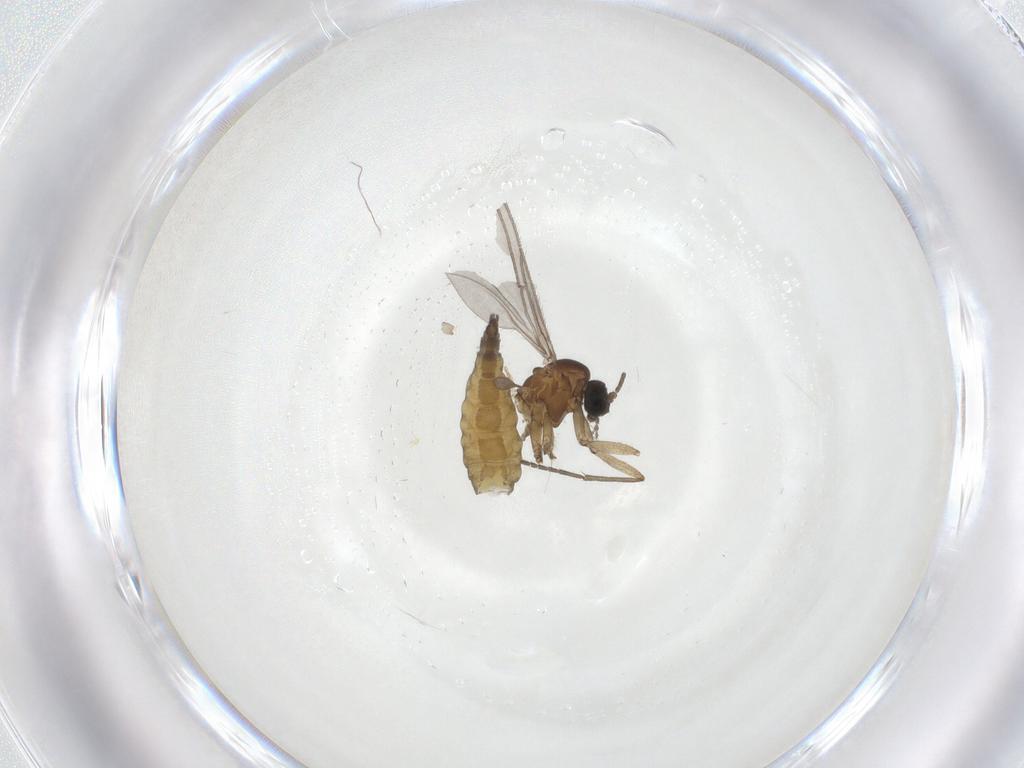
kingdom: Animalia
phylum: Arthropoda
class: Insecta
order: Diptera
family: Sciaridae
